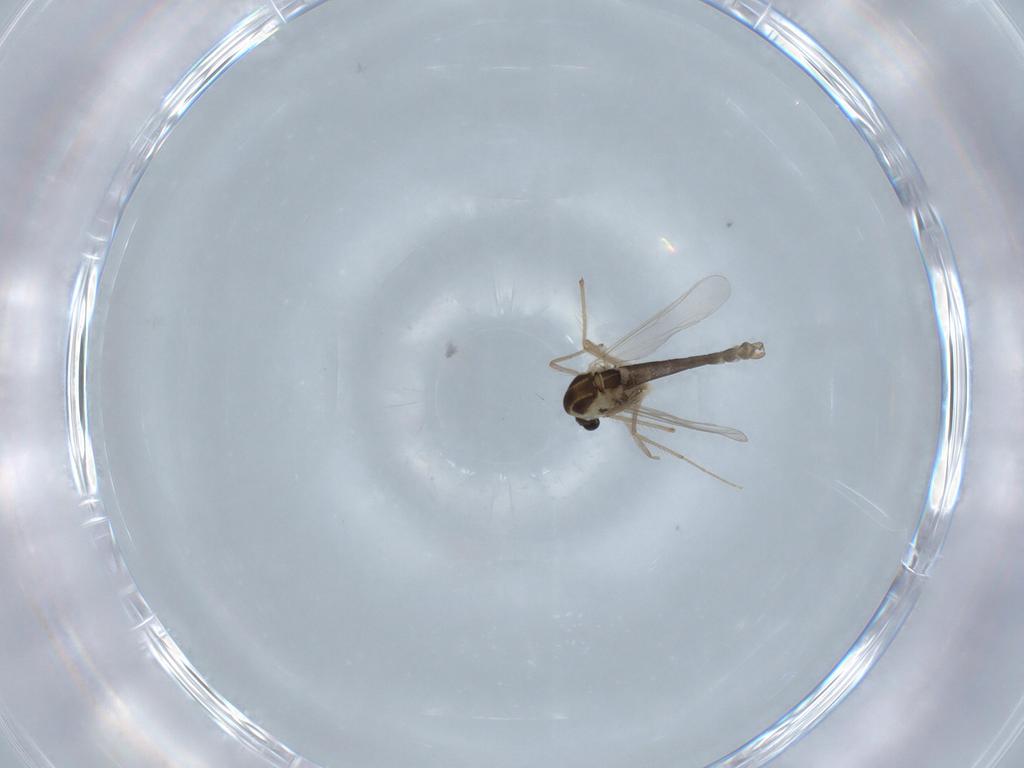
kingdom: Animalia
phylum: Arthropoda
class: Insecta
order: Diptera
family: Chironomidae
